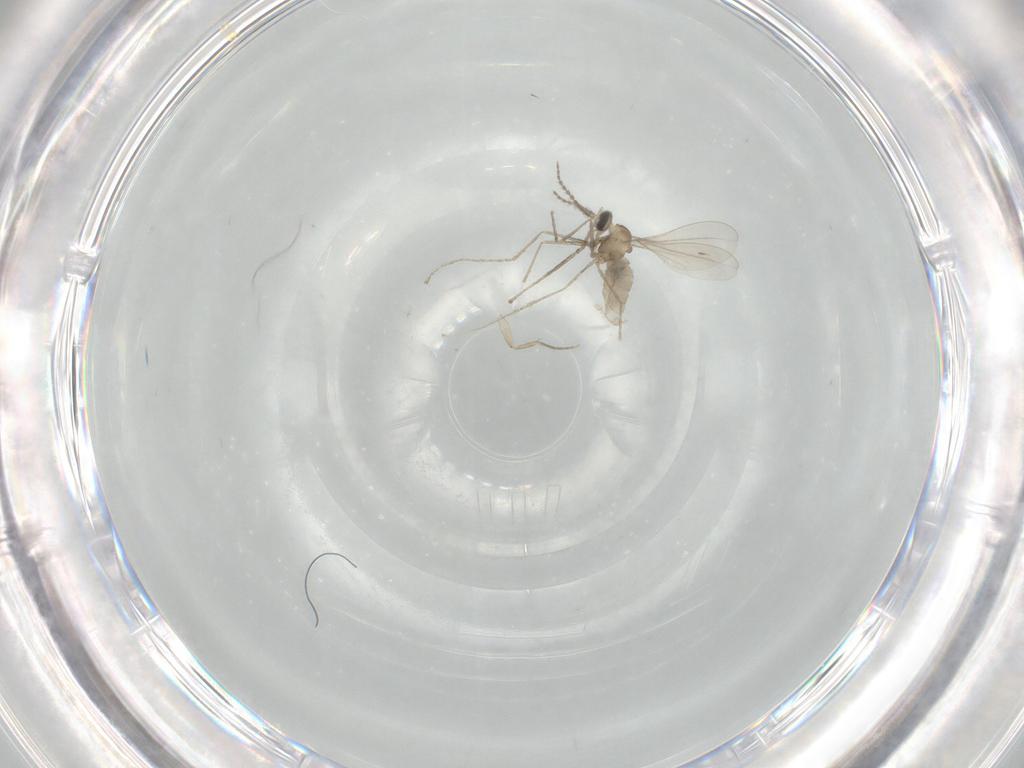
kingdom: Animalia
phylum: Arthropoda
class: Insecta
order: Diptera
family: Cecidomyiidae
